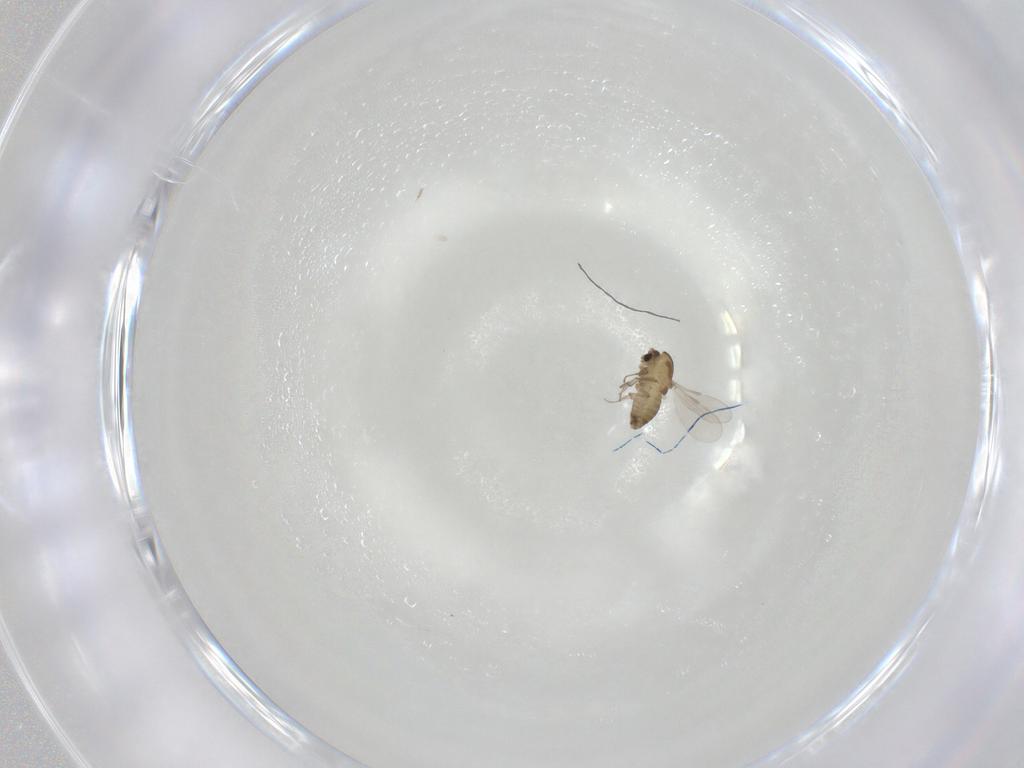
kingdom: Animalia
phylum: Arthropoda
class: Insecta
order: Diptera
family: Chironomidae
